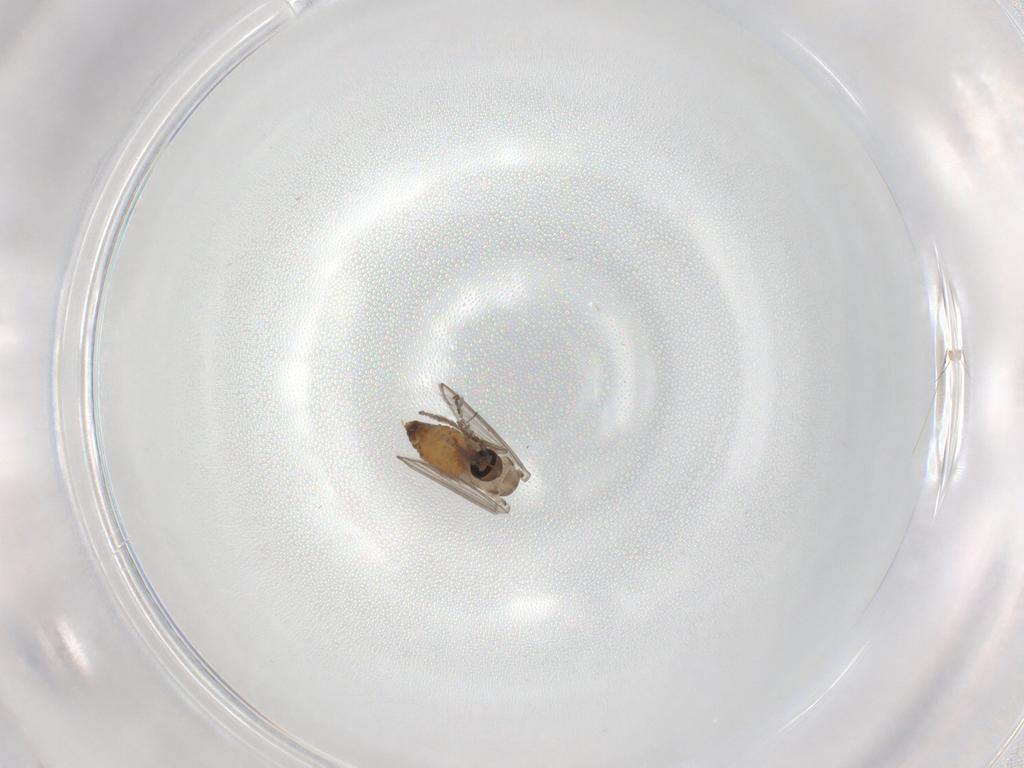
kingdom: Animalia
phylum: Arthropoda
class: Insecta
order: Diptera
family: Psychodidae
